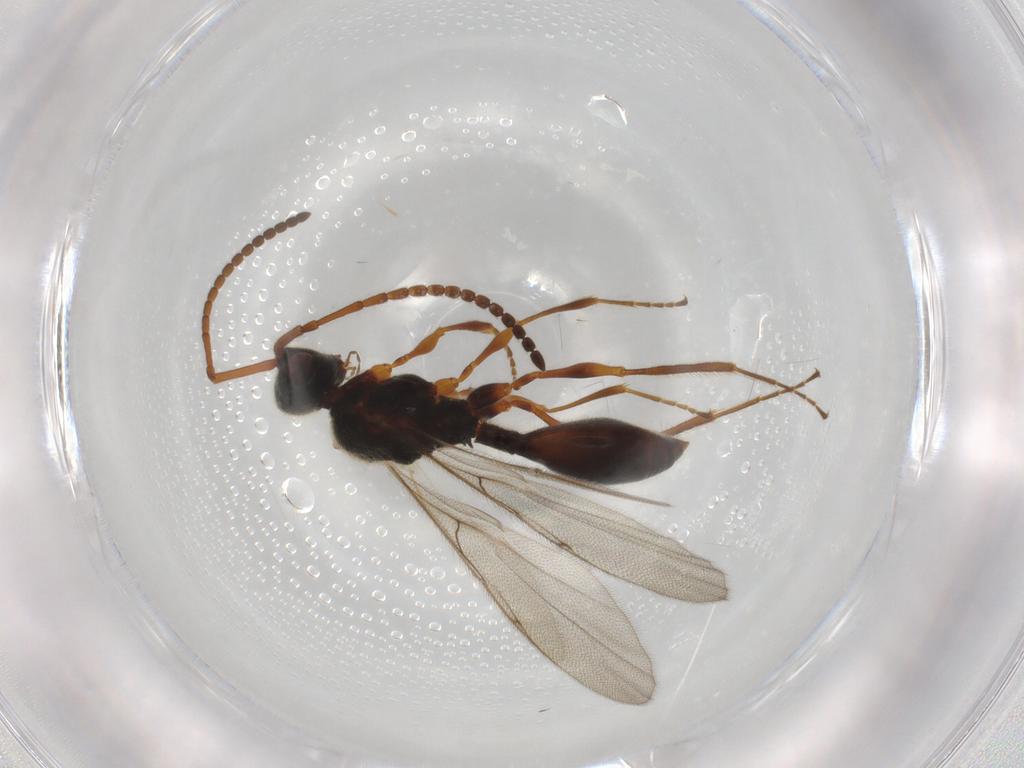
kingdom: Animalia
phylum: Arthropoda
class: Insecta
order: Hymenoptera
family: Diapriidae
